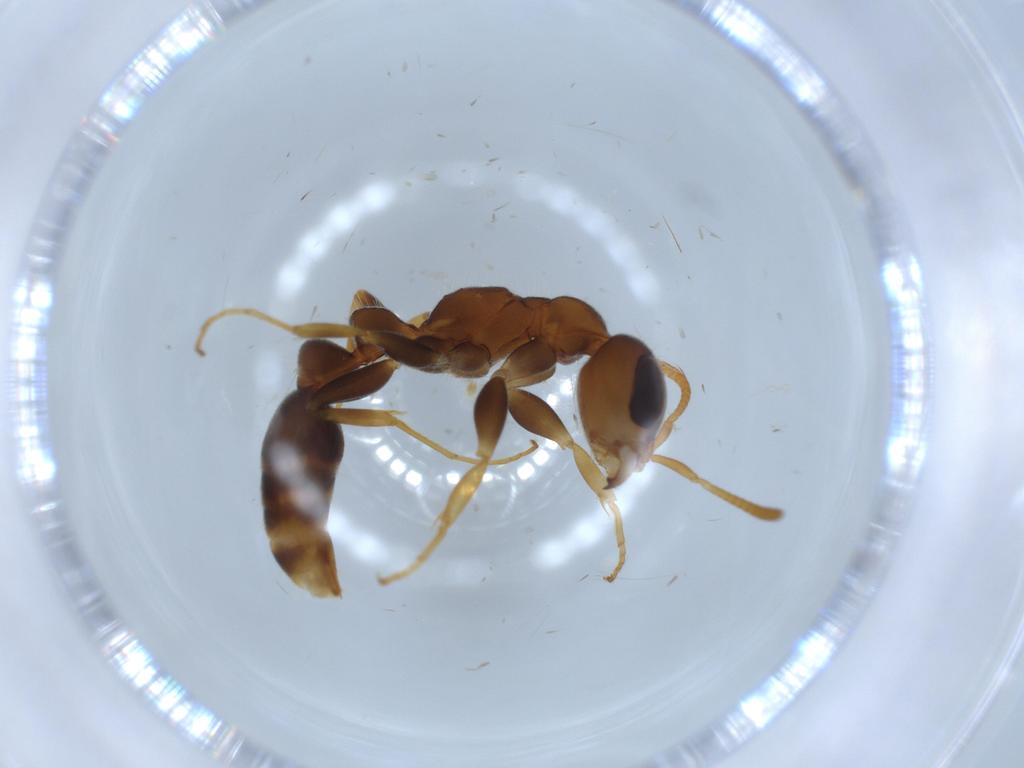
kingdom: Animalia
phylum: Arthropoda
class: Insecta
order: Hymenoptera
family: Formicidae
